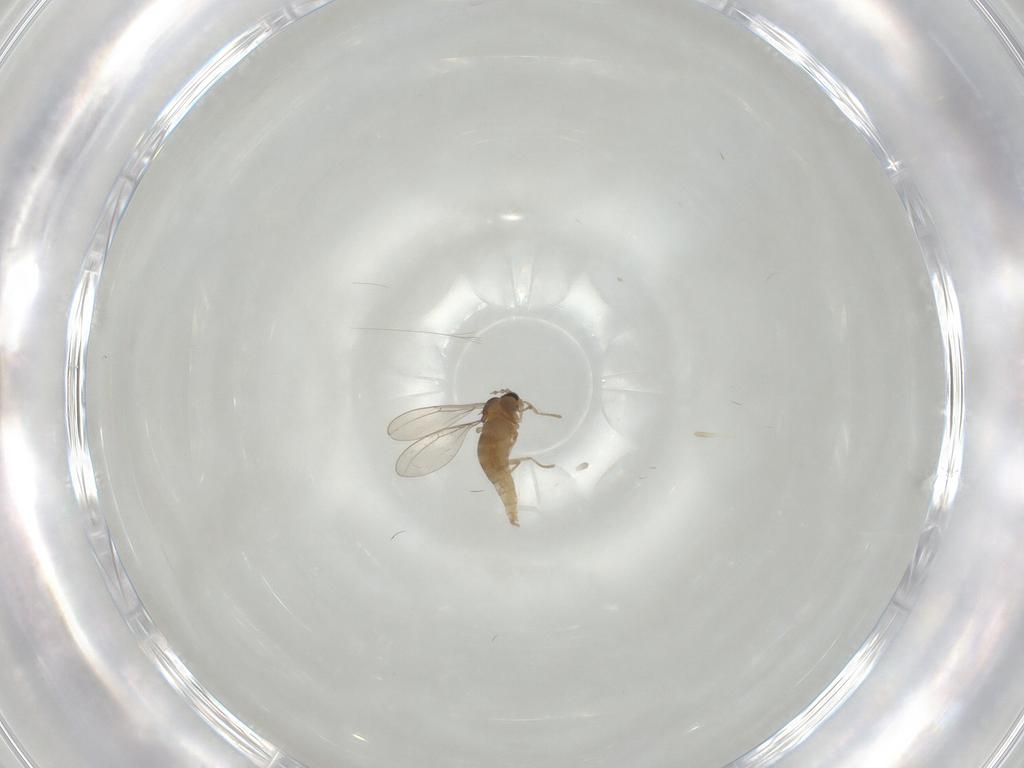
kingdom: Animalia
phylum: Arthropoda
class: Insecta
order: Diptera
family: Cecidomyiidae
